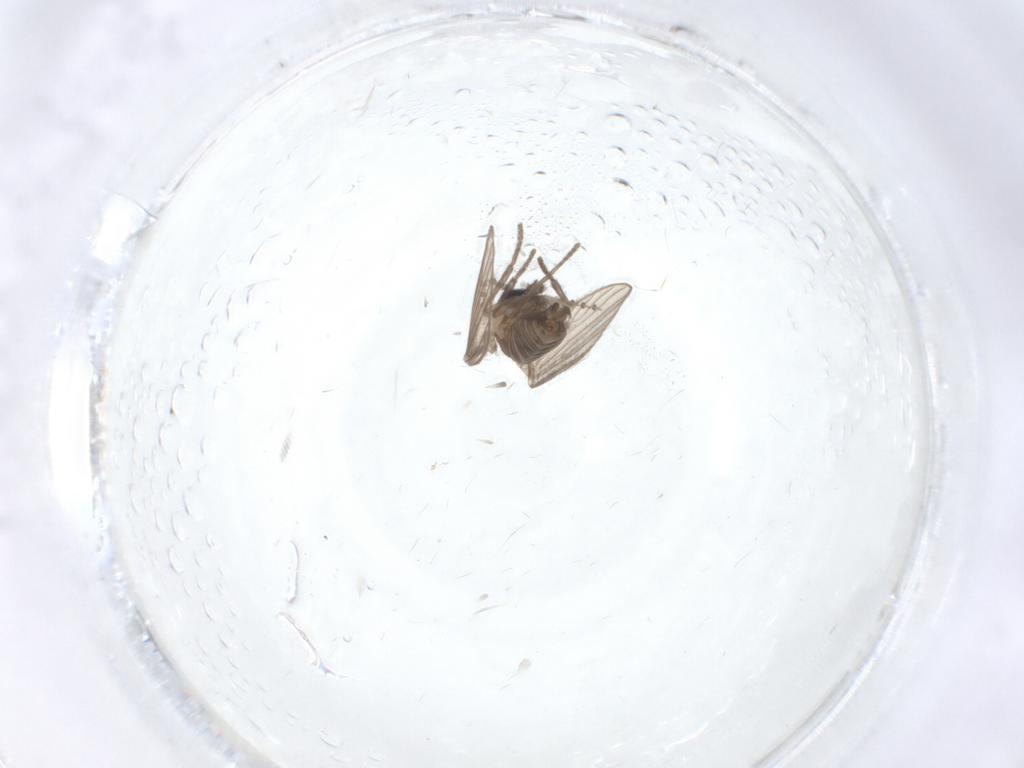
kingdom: Animalia
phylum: Arthropoda
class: Insecta
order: Diptera
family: Psychodidae
